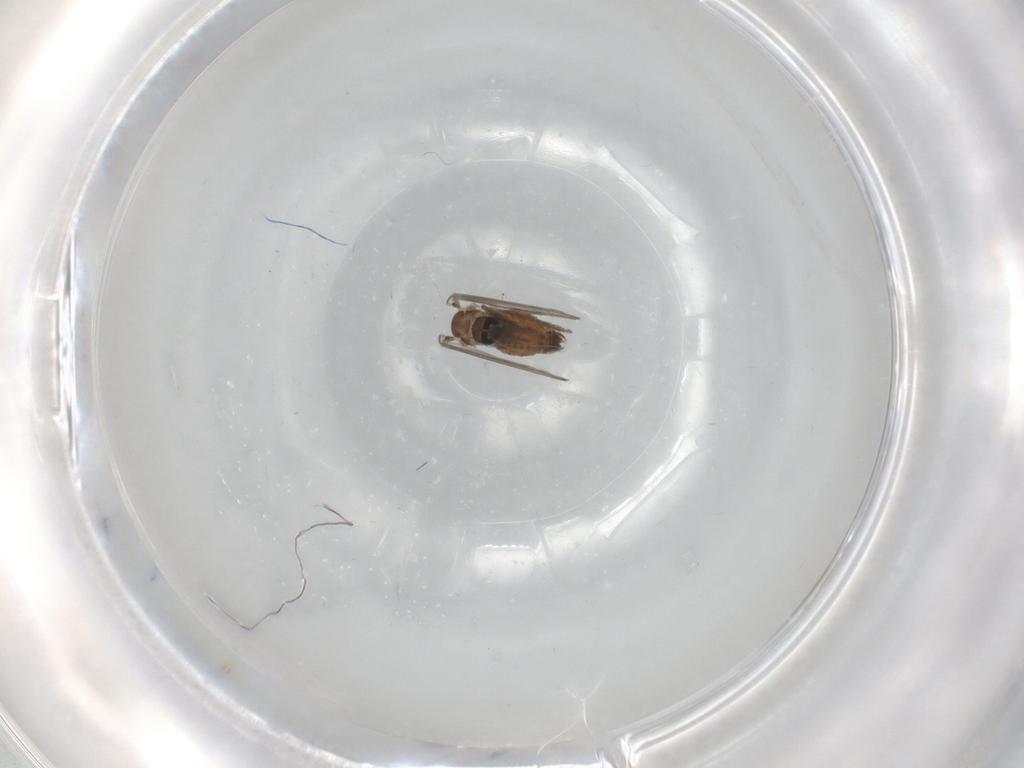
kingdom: Animalia
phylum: Arthropoda
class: Insecta
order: Diptera
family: Psychodidae
